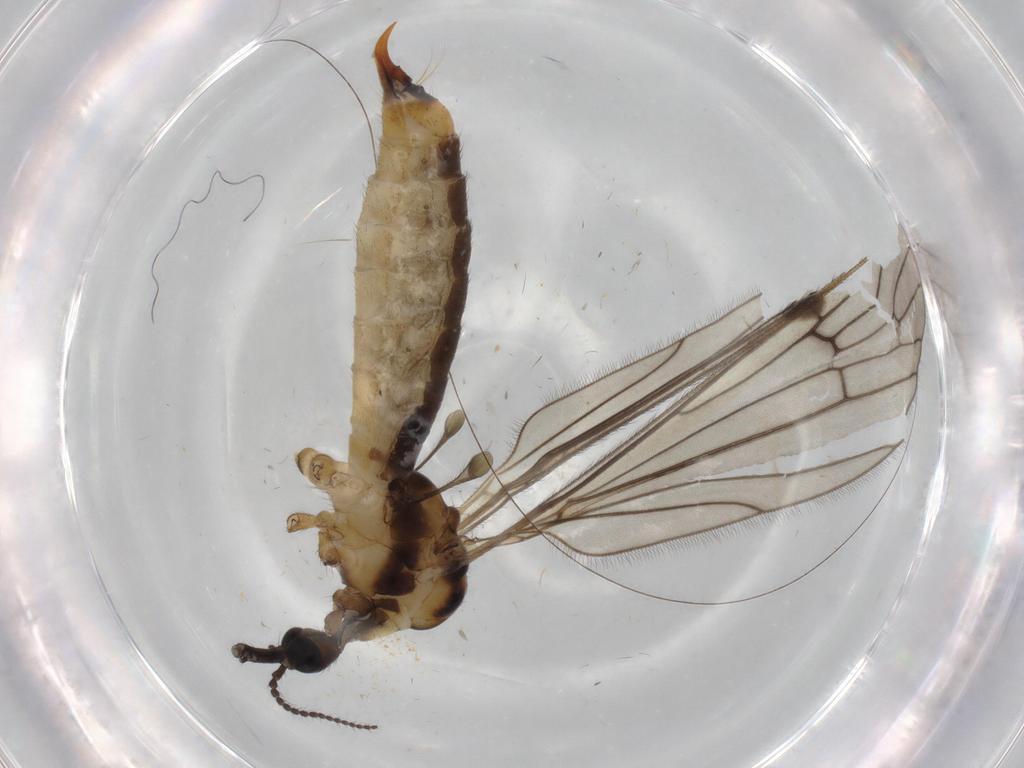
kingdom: Animalia
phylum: Arthropoda
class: Insecta
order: Diptera
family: Limoniidae
